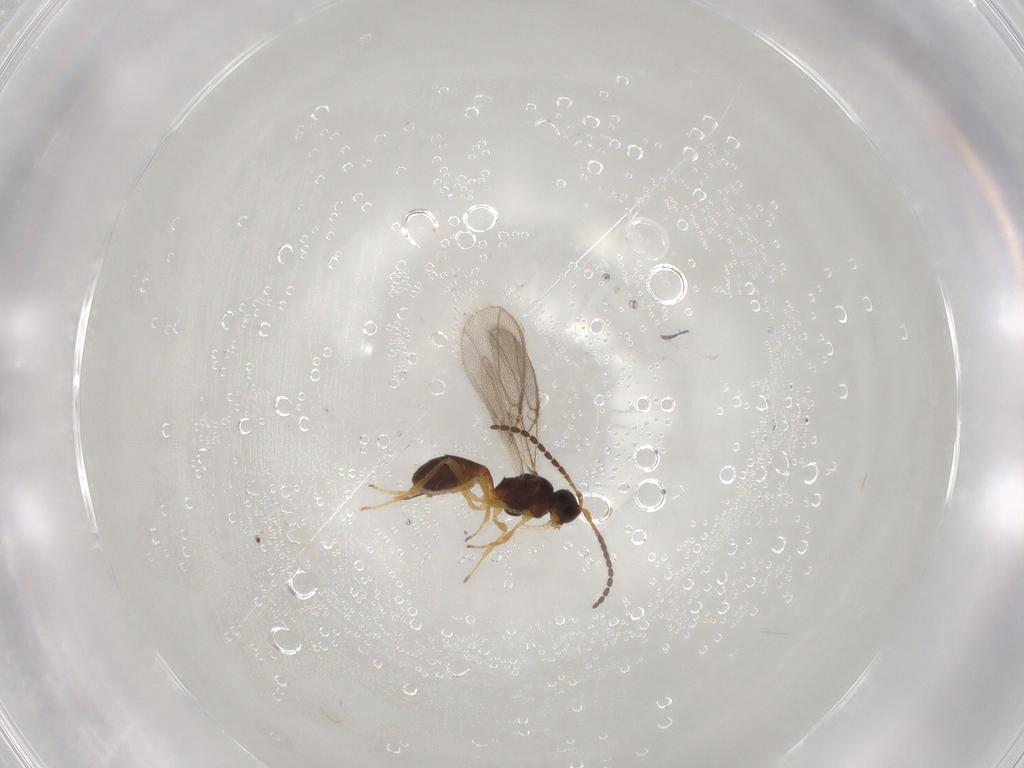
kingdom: Animalia
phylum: Arthropoda
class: Insecta
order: Hymenoptera
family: Braconidae
